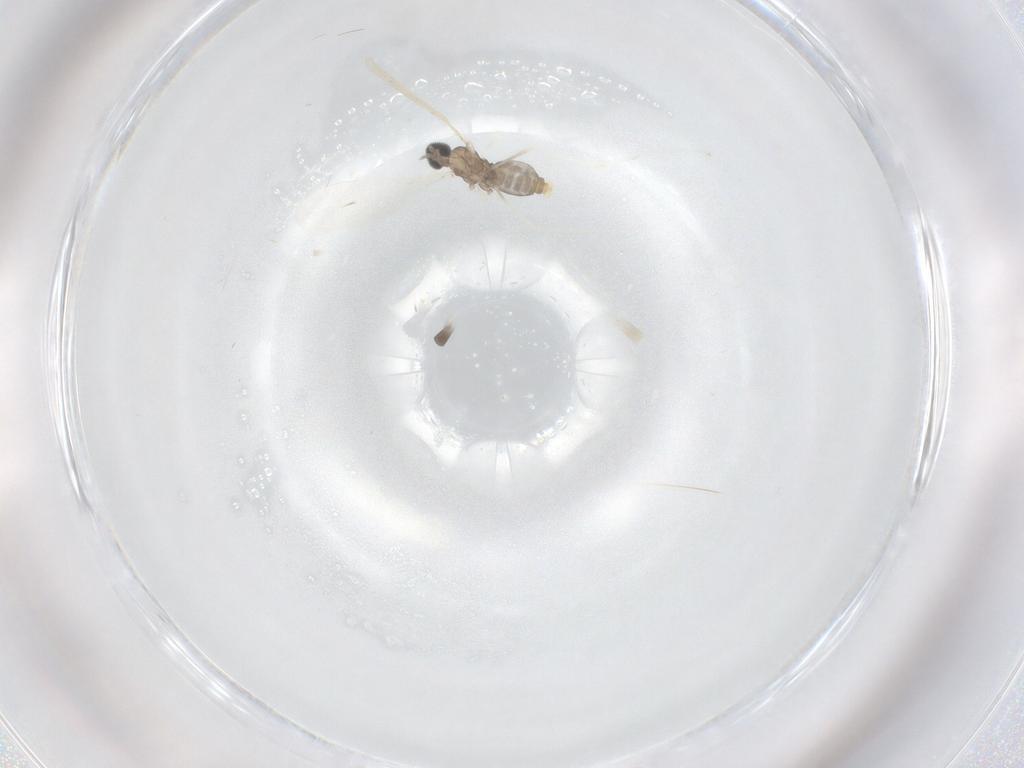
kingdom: Animalia
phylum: Arthropoda
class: Insecta
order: Diptera
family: Cecidomyiidae
